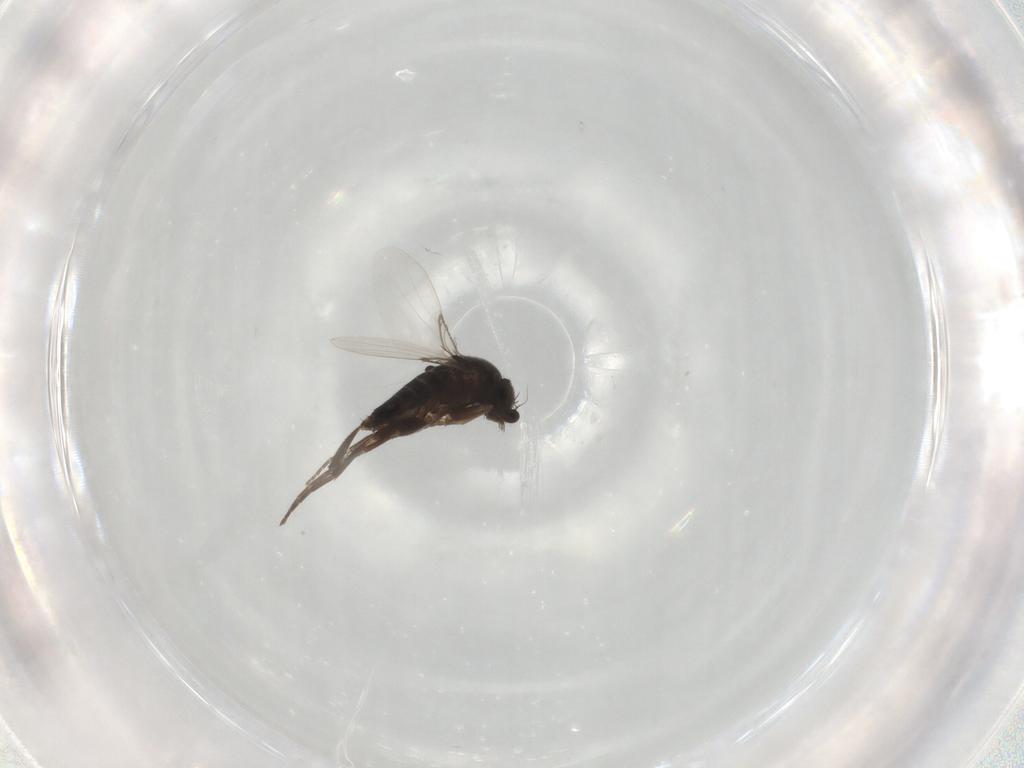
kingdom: Animalia
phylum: Arthropoda
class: Insecta
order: Diptera
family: Phoridae
